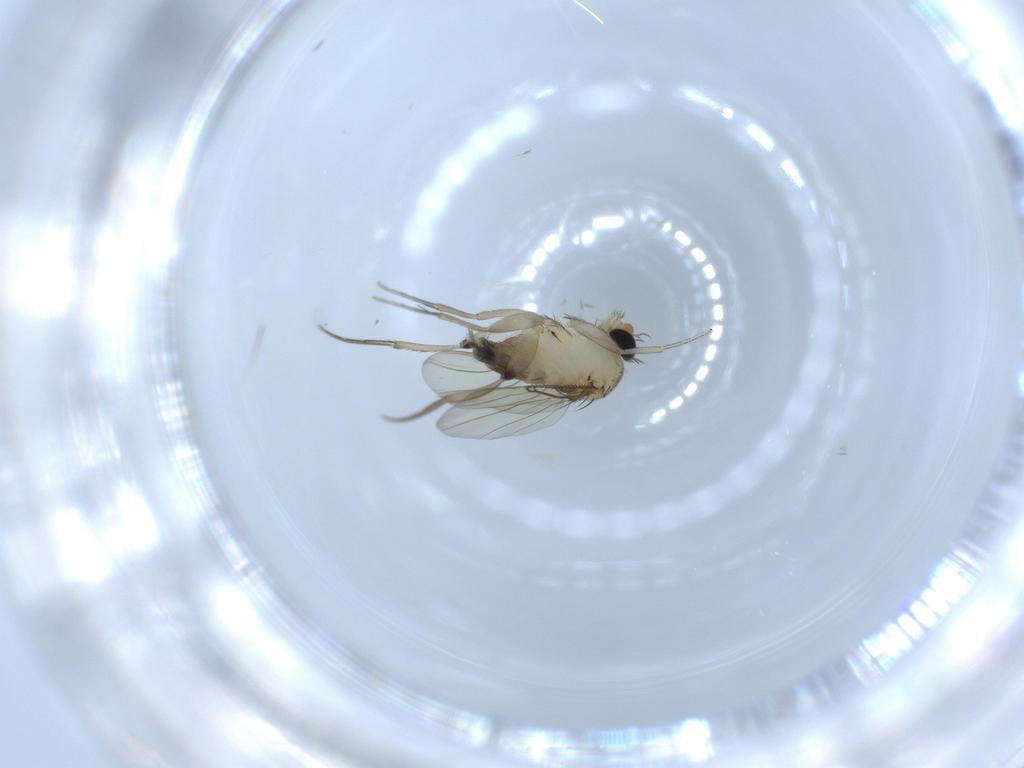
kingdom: Animalia
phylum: Arthropoda
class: Insecta
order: Diptera
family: Phoridae
